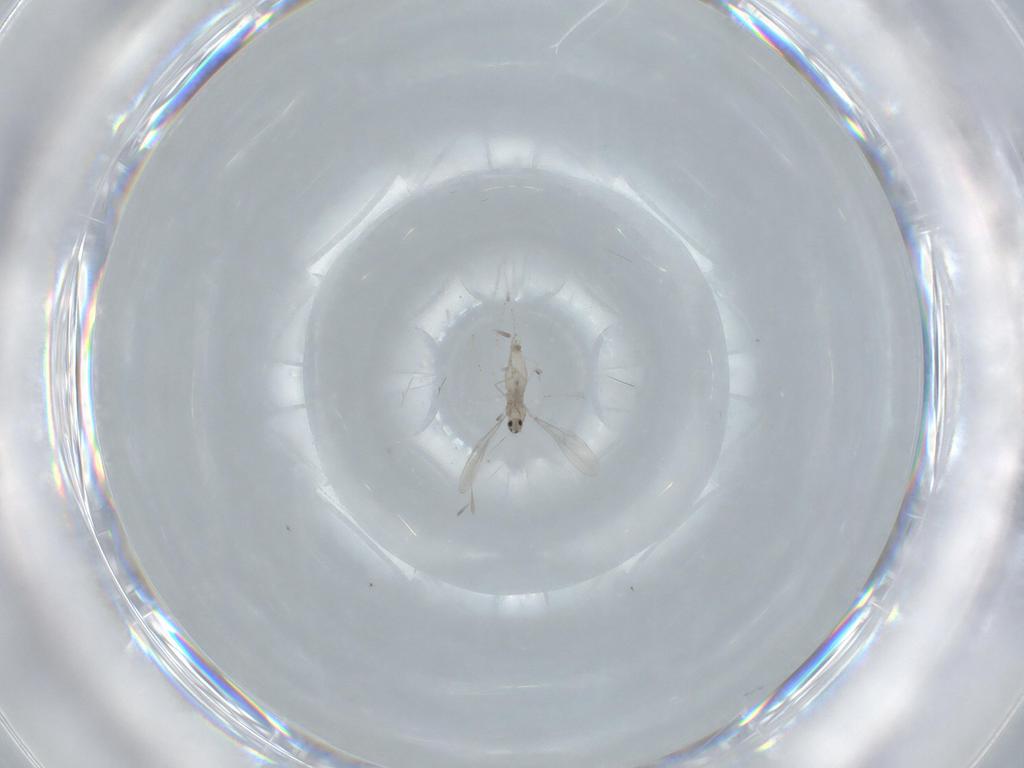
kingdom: Animalia
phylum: Arthropoda
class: Insecta
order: Diptera
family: Cecidomyiidae
